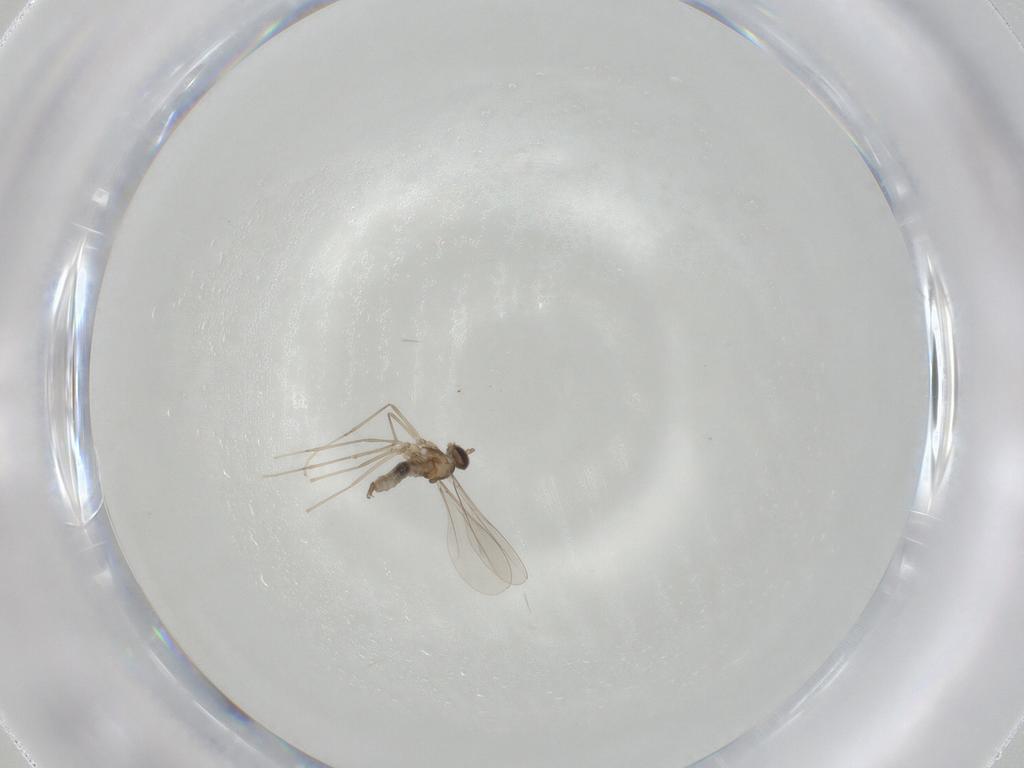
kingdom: Animalia
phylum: Arthropoda
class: Insecta
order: Diptera
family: Cecidomyiidae
